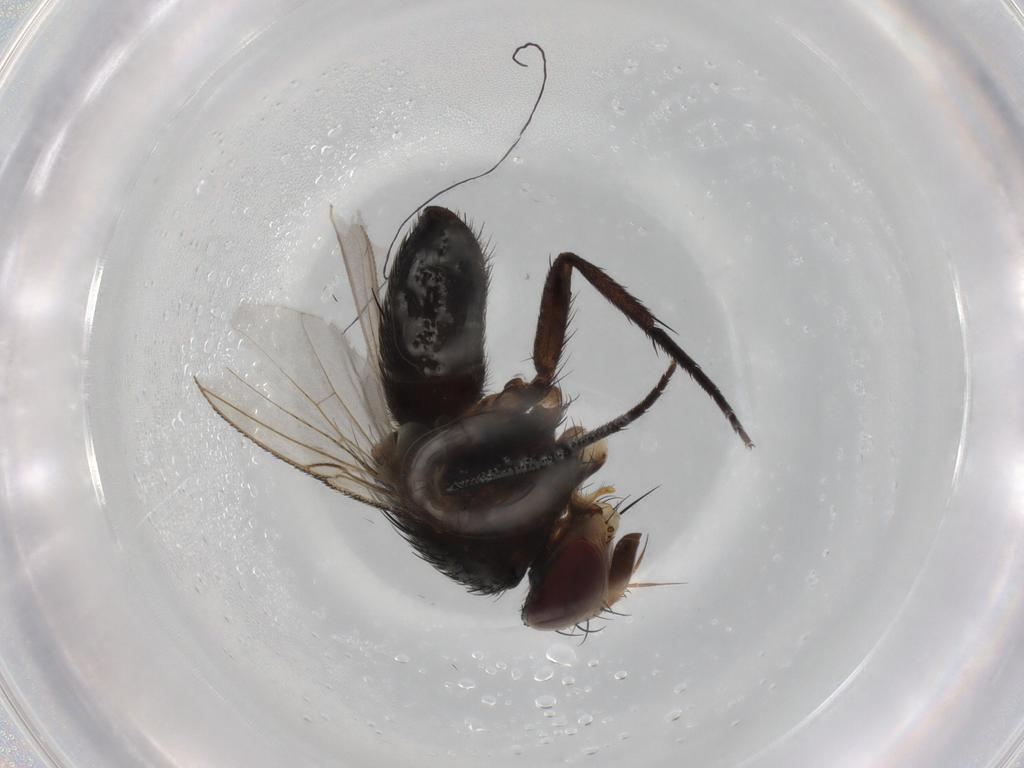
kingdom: Animalia
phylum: Arthropoda
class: Insecta
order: Diptera
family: Tachinidae
